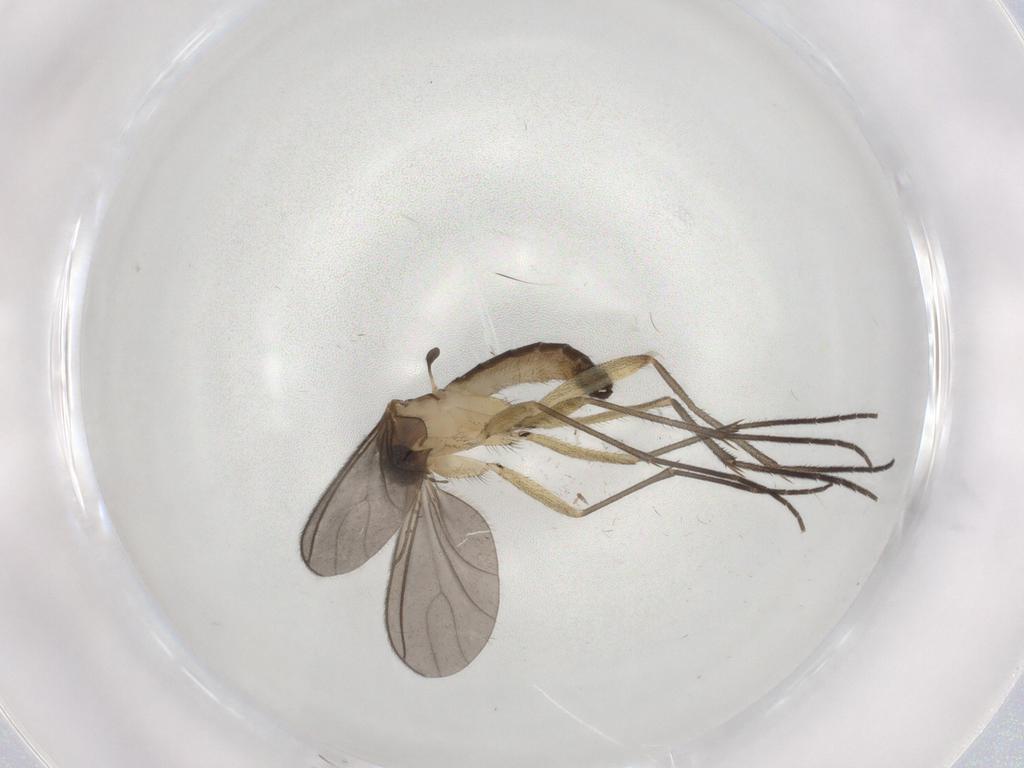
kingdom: Animalia
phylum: Arthropoda
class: Insecta
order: Diptera
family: Sciaridae
